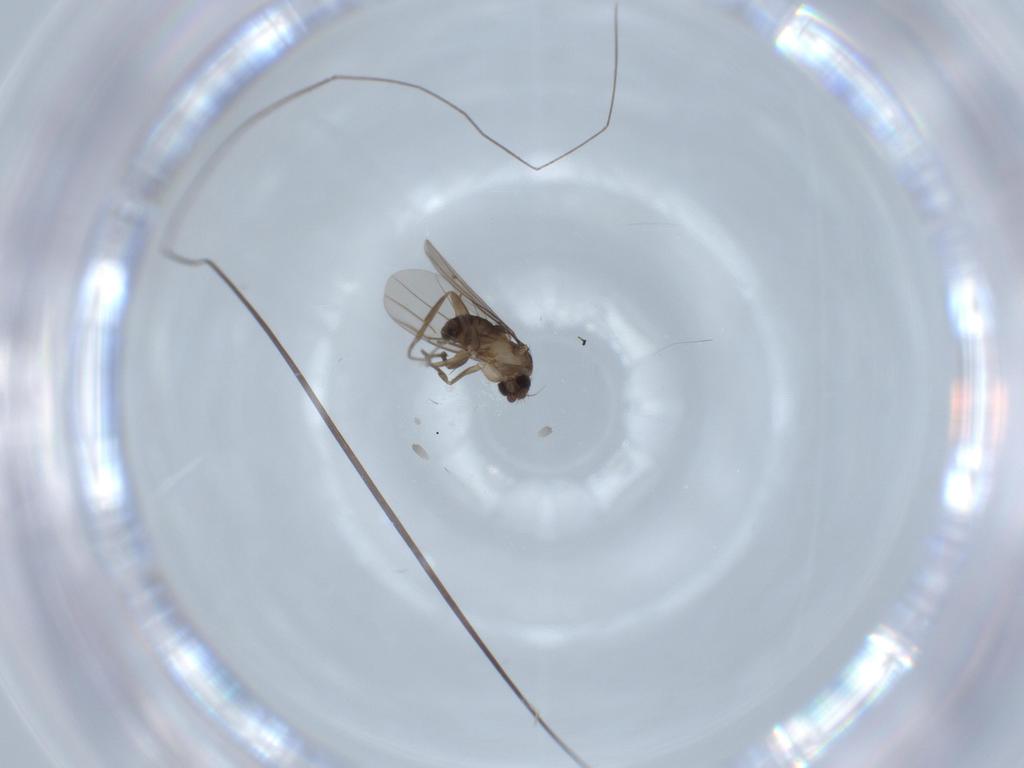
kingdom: Animalia
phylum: Arthropoda
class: Insecta
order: Diptera
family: Phoridae
